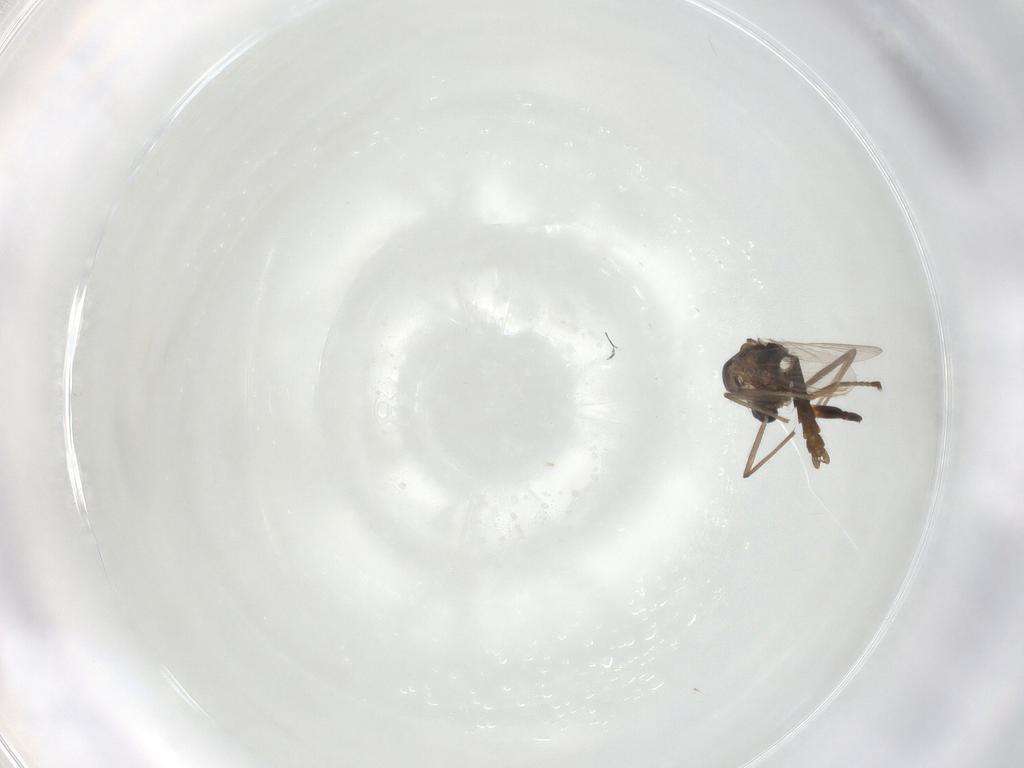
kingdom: Animalia
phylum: Arthropoda
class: Insecta
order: Diptera
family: Chironomidae
